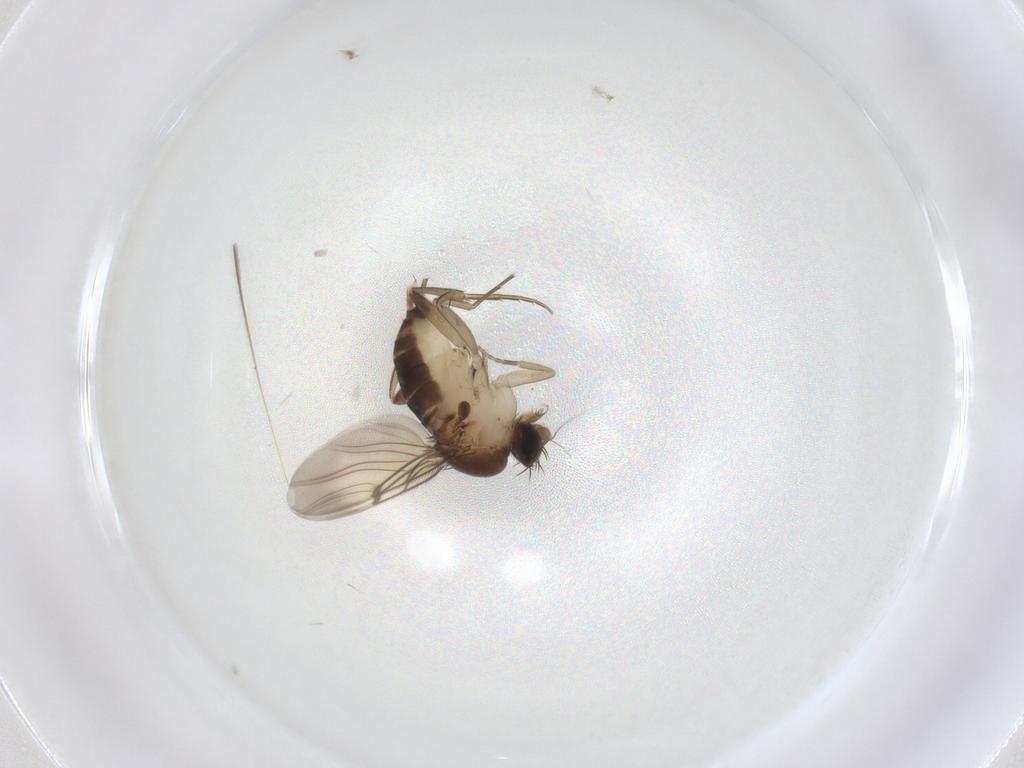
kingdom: Animalia
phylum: Arthropoda
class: Insecta
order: Diptera
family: Phoridae
